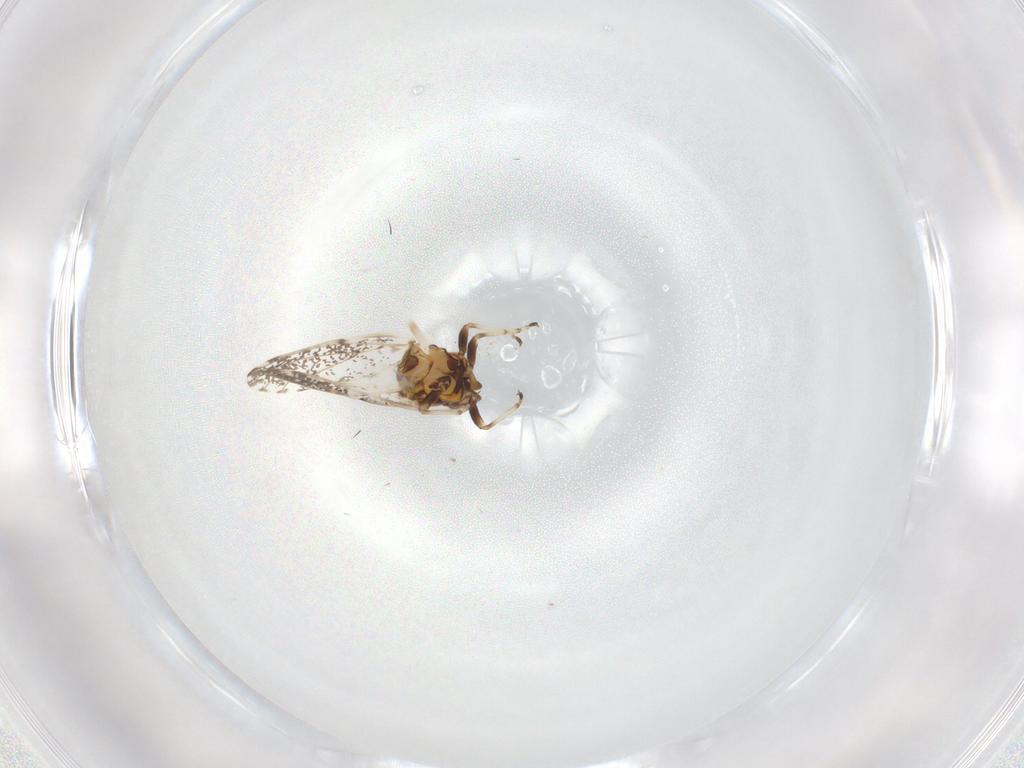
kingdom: Animalia
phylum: Arthropoda
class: Insecta
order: Hemiptera
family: Liviidae
